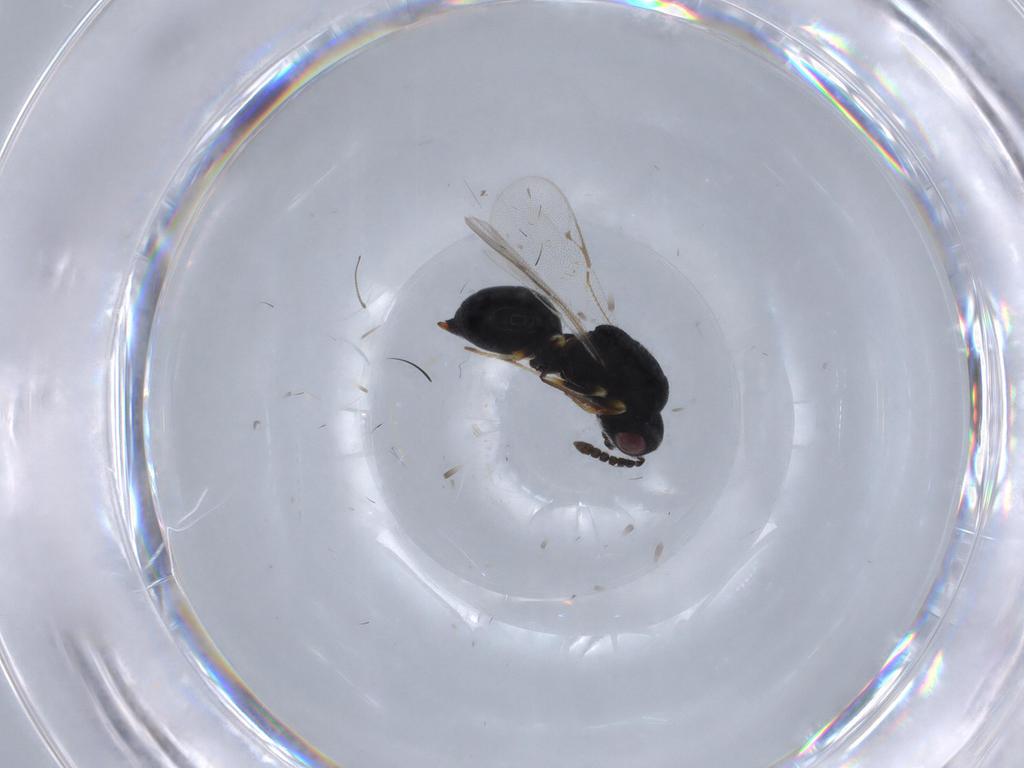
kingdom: Animalia
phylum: Arthropoda
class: Insecta
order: Hymenoptera
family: Eurytomidae
